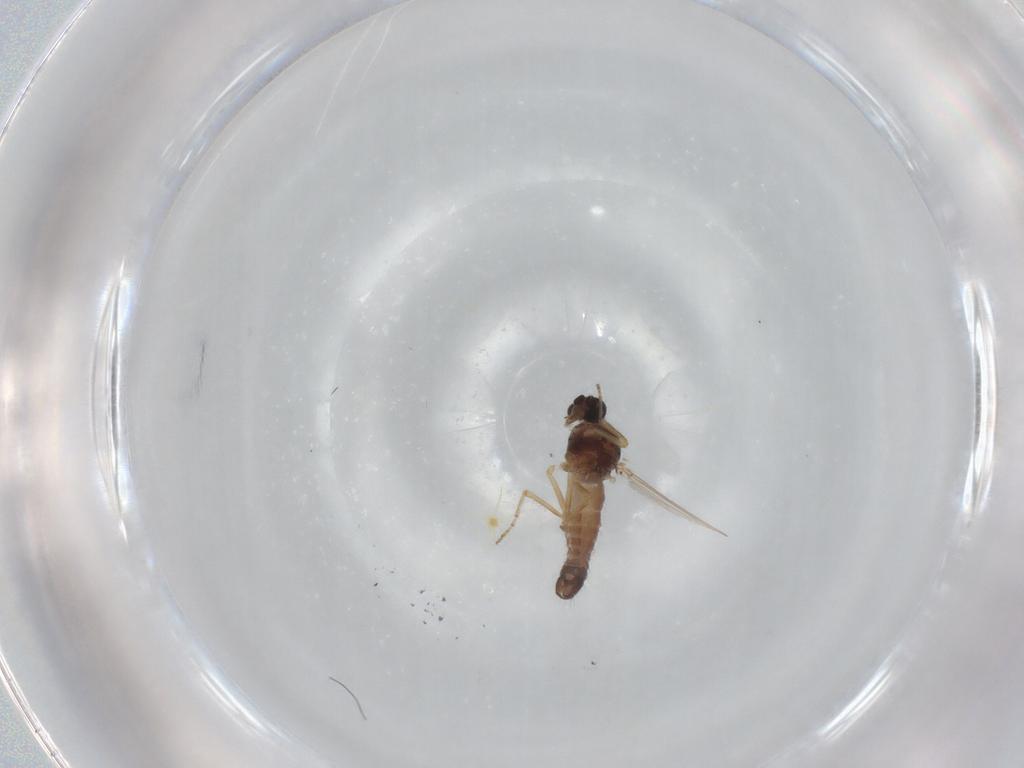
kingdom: Animalia
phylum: Arthropoda
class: Insecta
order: Diptera
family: Ceratopogonidae
